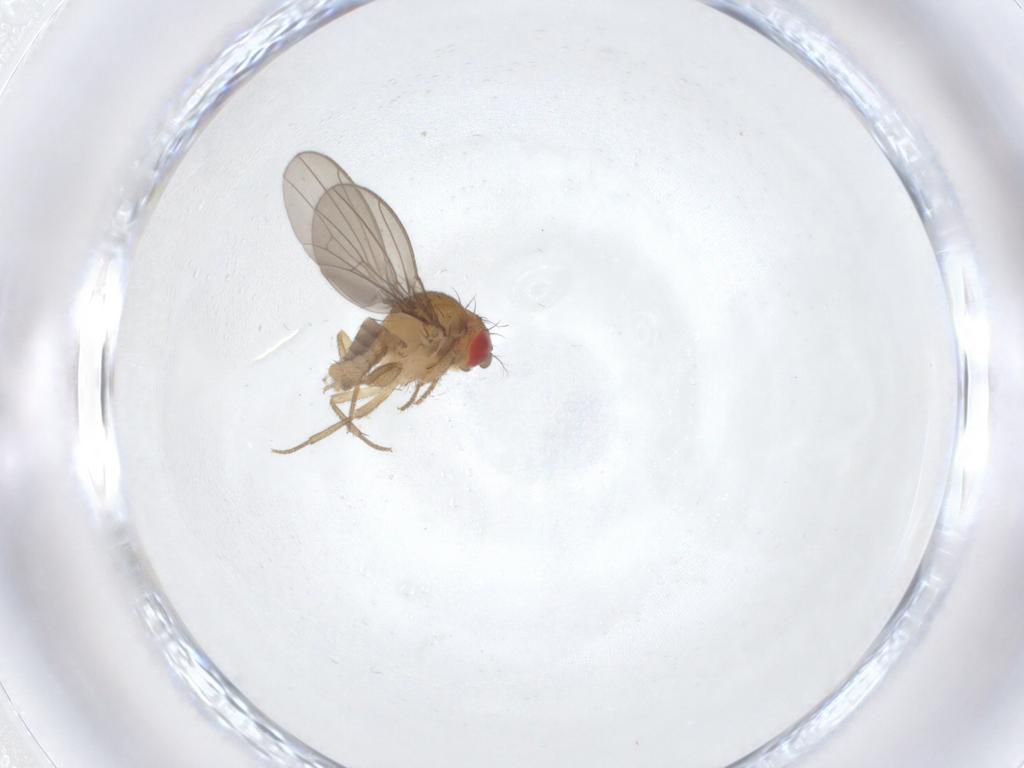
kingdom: Animalia
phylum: Arthropoda
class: Insecta
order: Diptera
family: Drosophilidae
